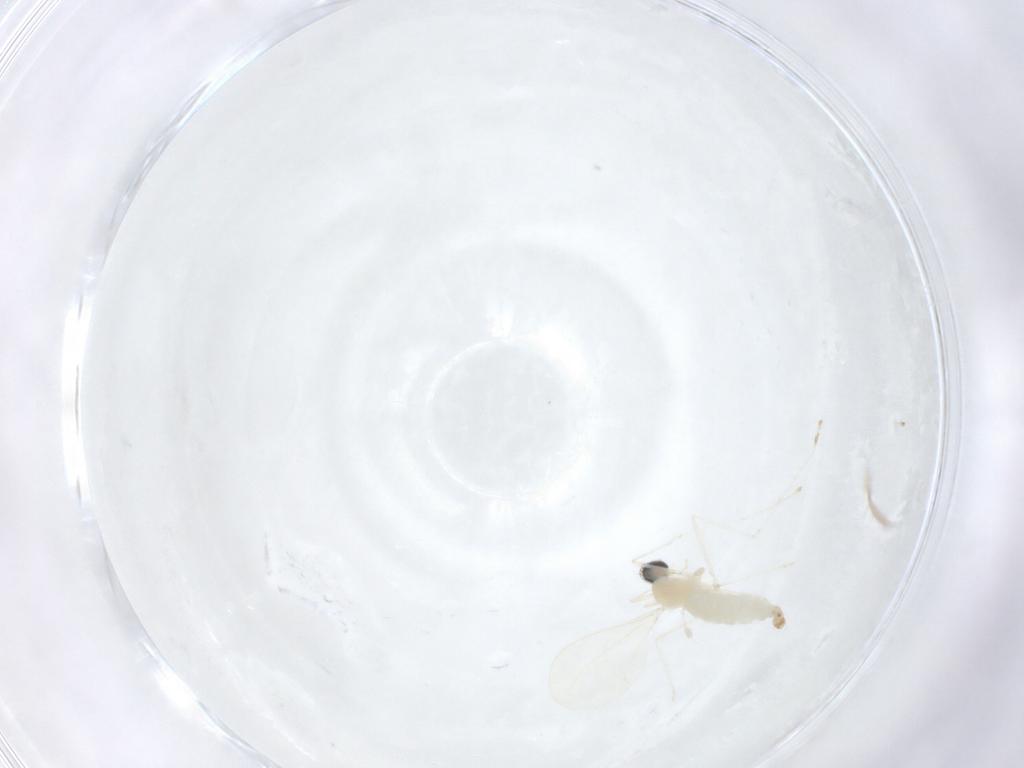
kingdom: Animalia
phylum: Arthropoda
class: Insecta
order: Diptera
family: Cecidomyiidae
